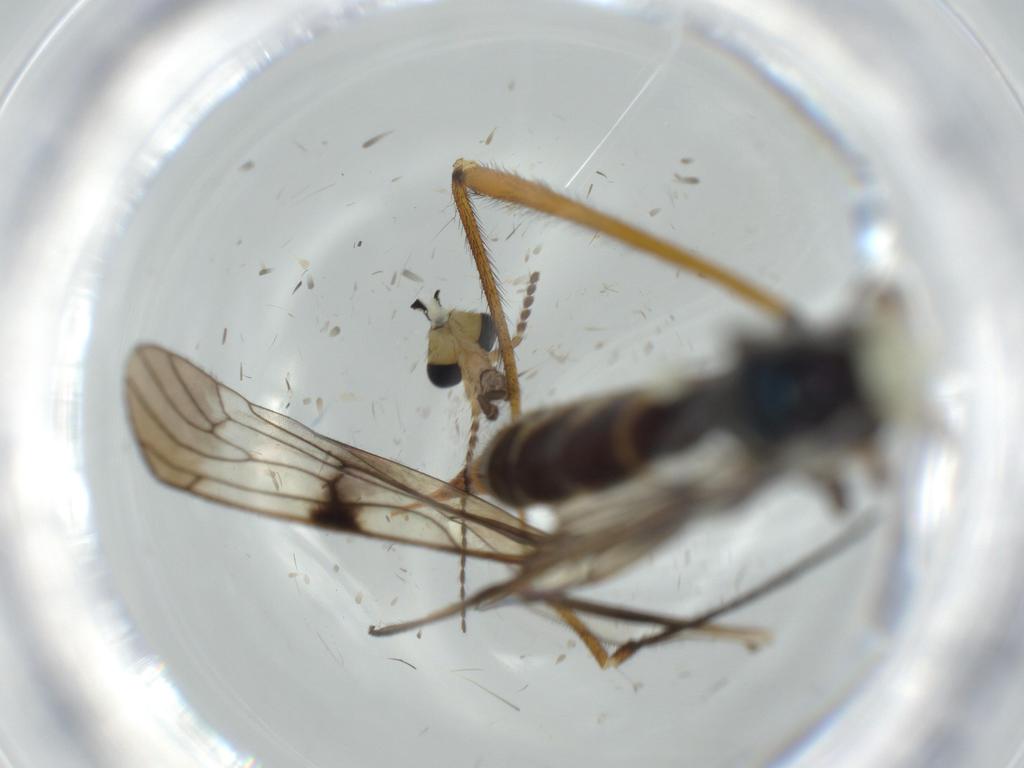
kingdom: Animalia
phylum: Arthropoda
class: Insecta
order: Diptera
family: Limoniidae
